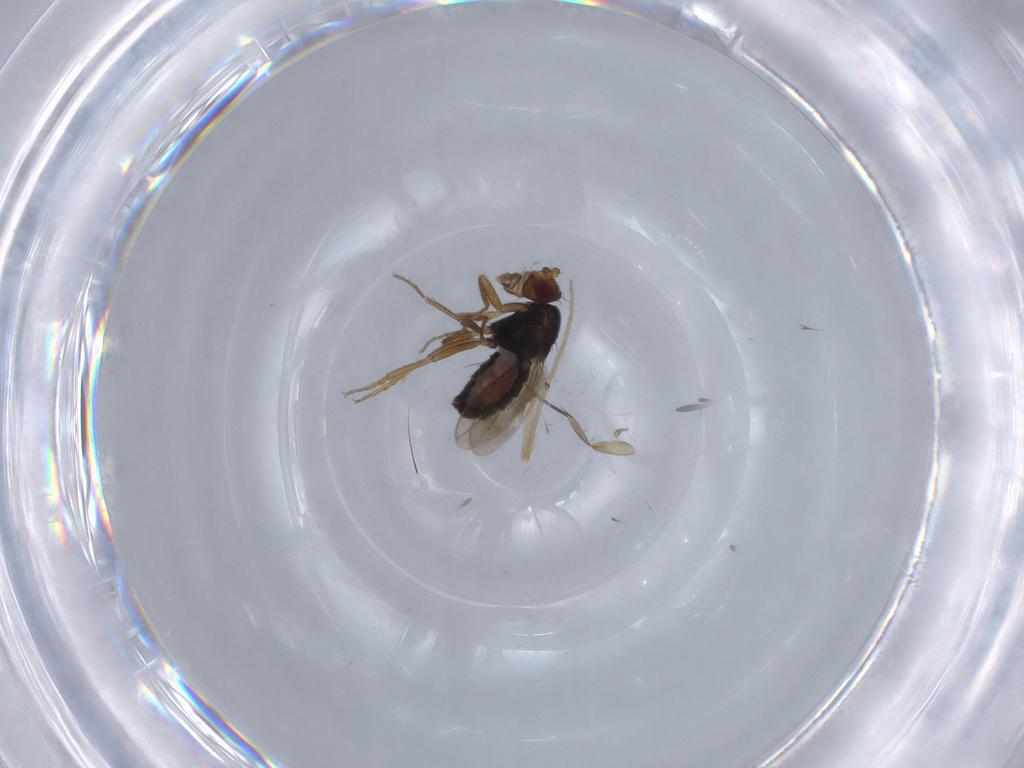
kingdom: Animalia
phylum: Arthropoda
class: Insecta
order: Diptera
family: Sphaeroceridae
